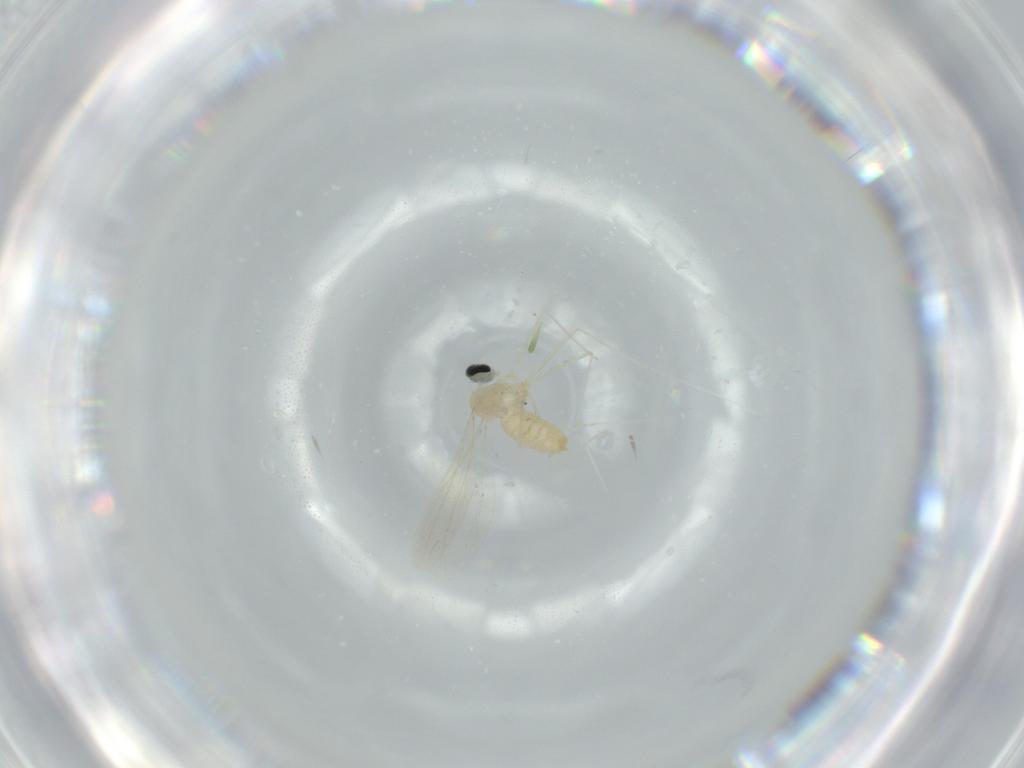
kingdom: Animalia
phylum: Arthropoda
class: Insecta
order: Diptera
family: Cecidomyiidae
